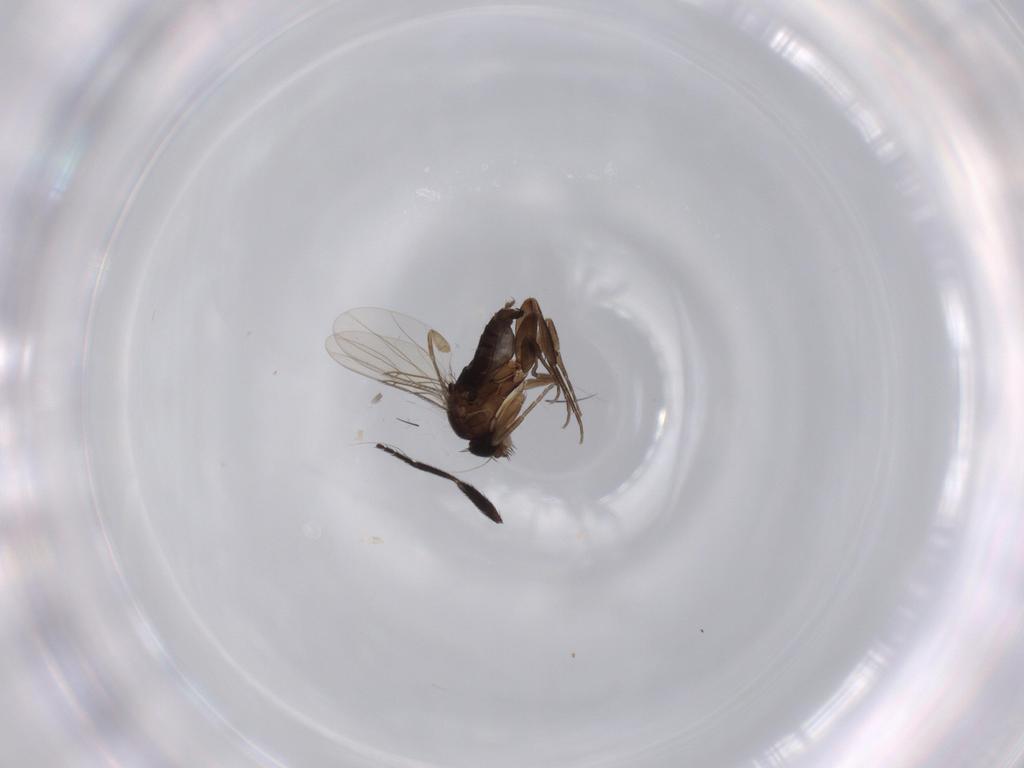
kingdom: Animalia
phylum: Arthropoda
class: Insecta
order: Diptera
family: Phoridae
